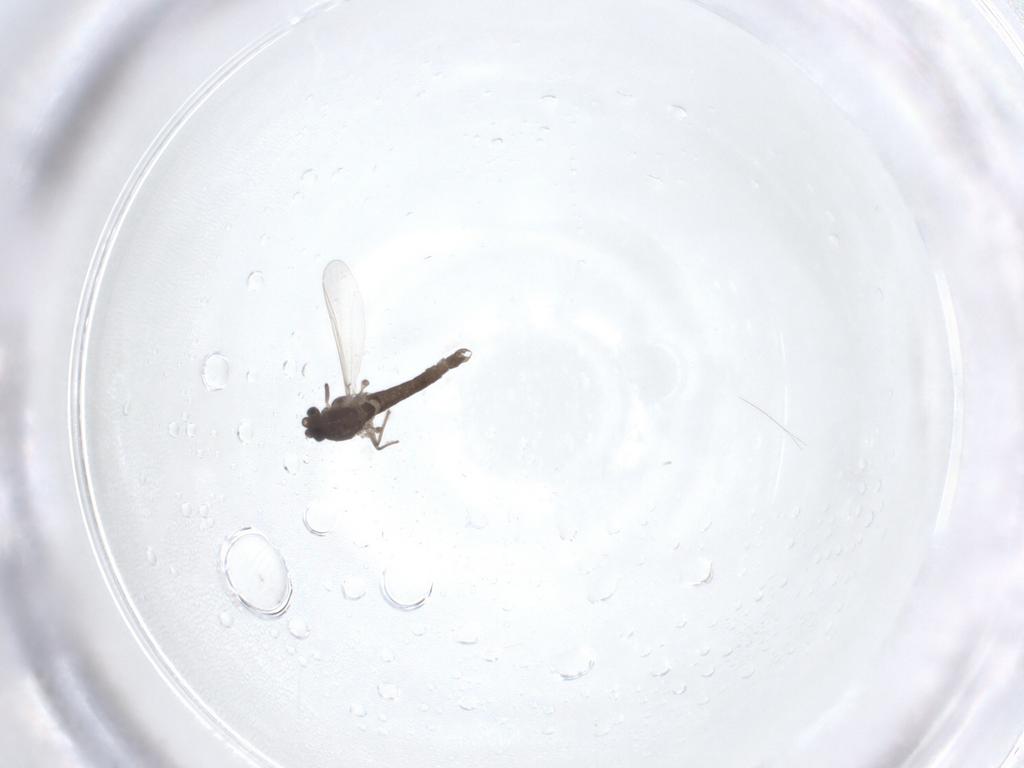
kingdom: Animalia
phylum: Arthropoda
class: Insecta
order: Diptera
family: Chironomidae
